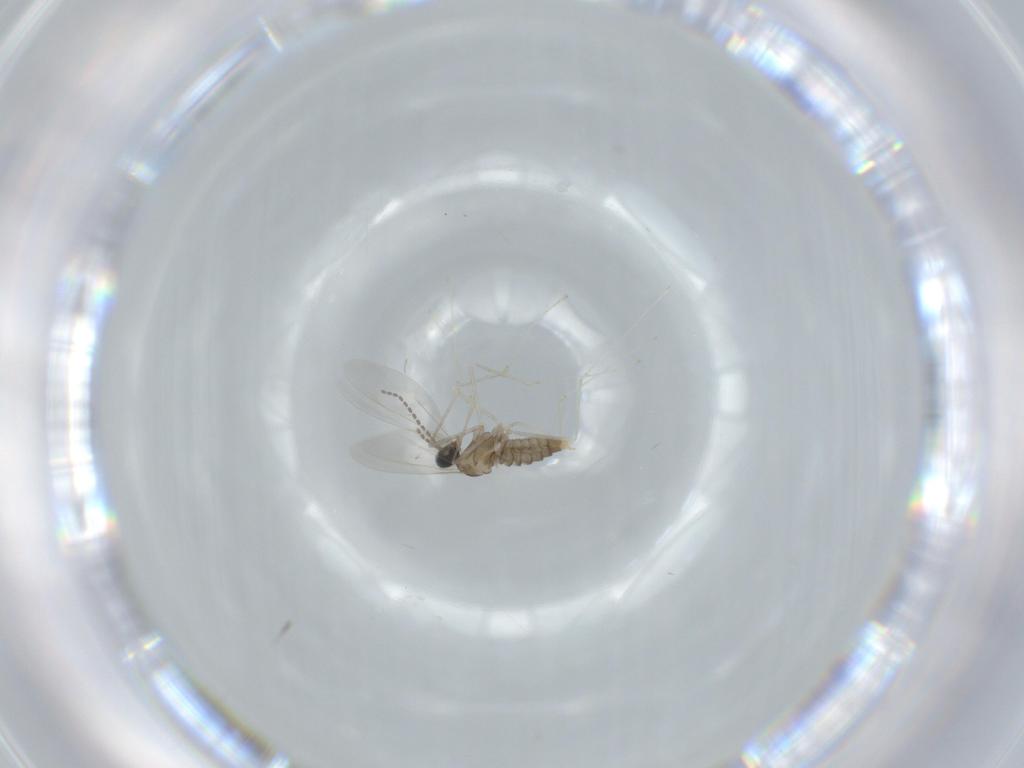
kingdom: Animalia
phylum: Arthropoda
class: Insecta
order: Diptera
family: Cecidomyiidae
